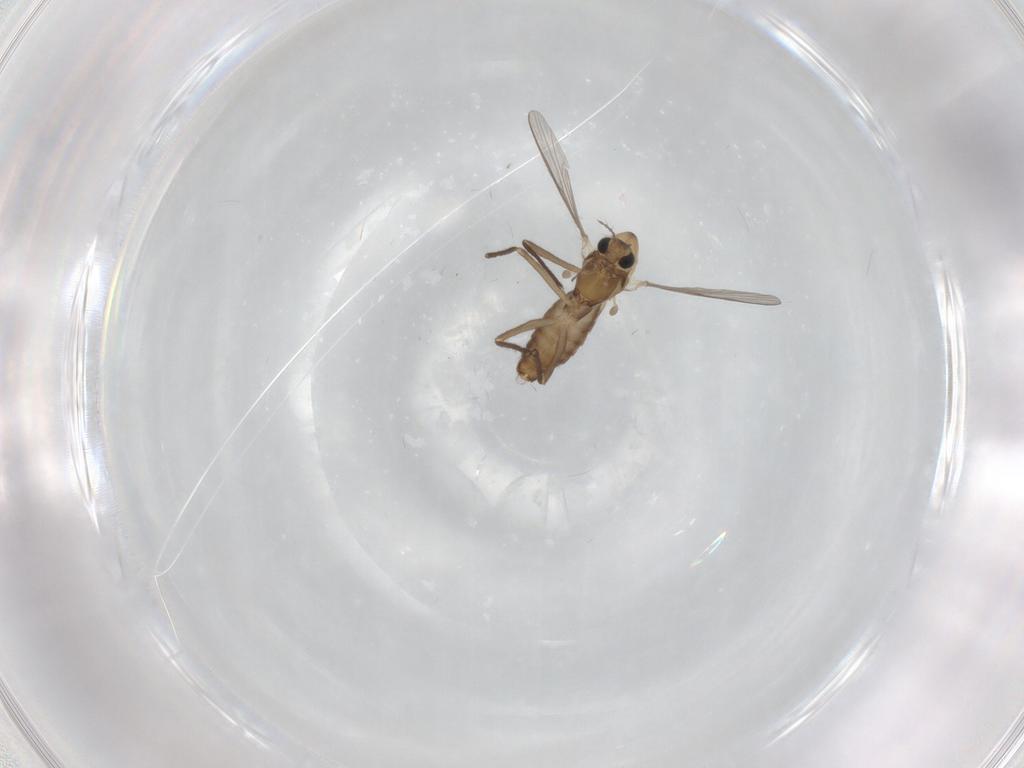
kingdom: Animalia
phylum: Arthropoda
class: Insecta
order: Diptera
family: Chironomidae
